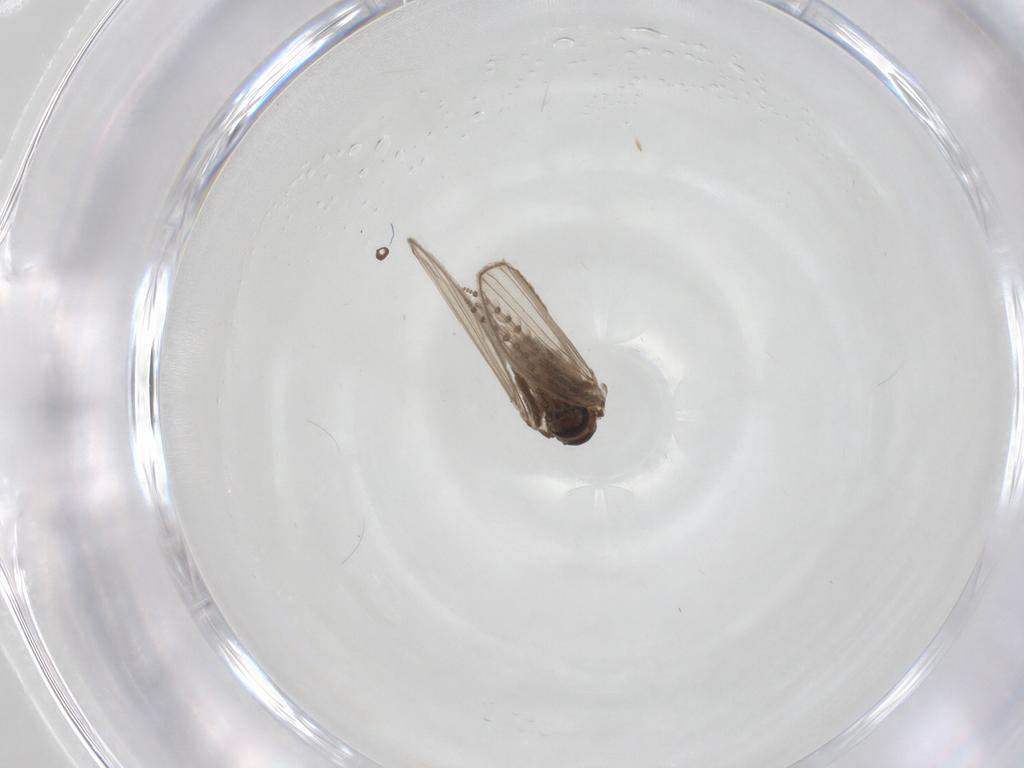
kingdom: Animalia
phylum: Arthropoda
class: Insecta
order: Diptera
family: Psychodidae
